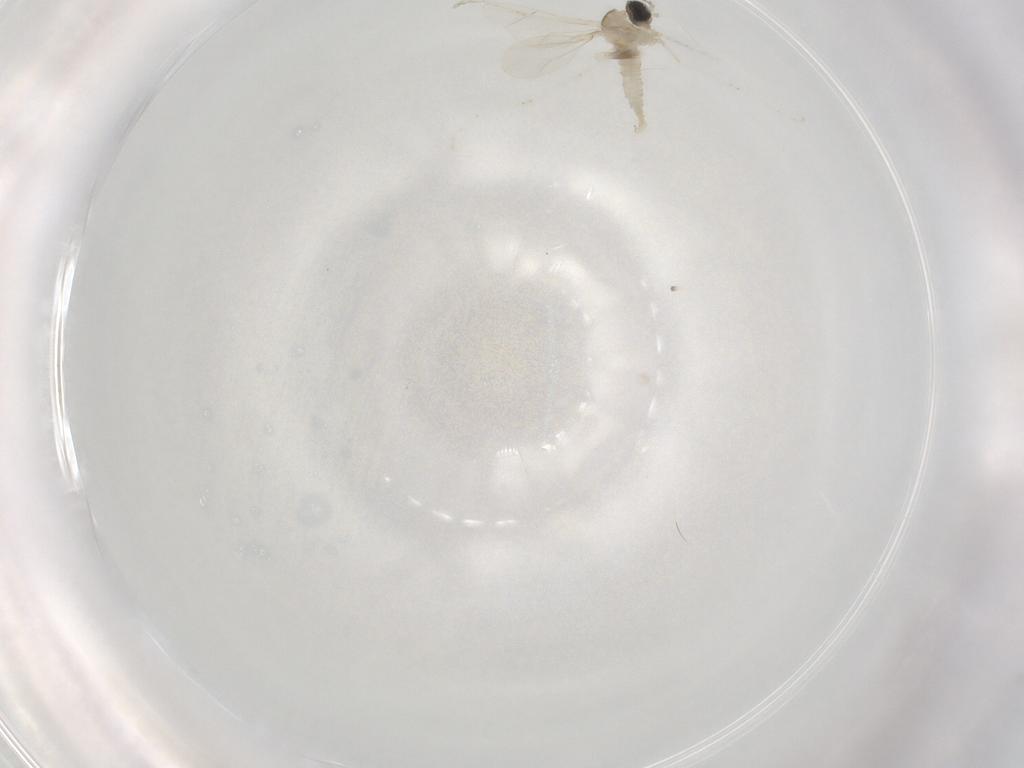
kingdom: Animalia
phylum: Arthropoda
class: Insecta
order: Diptera
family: Cecidomyiidae
